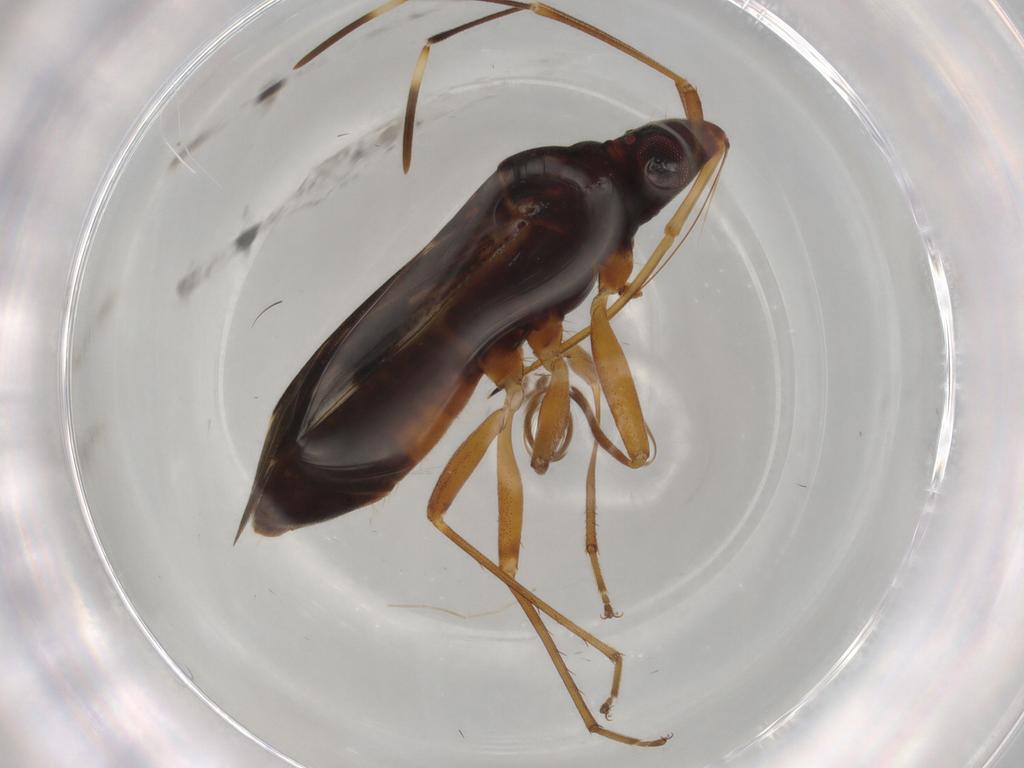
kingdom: Animalia
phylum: Arthropoda
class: Insecta
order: Hemiptera
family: Rhyparochromidae
